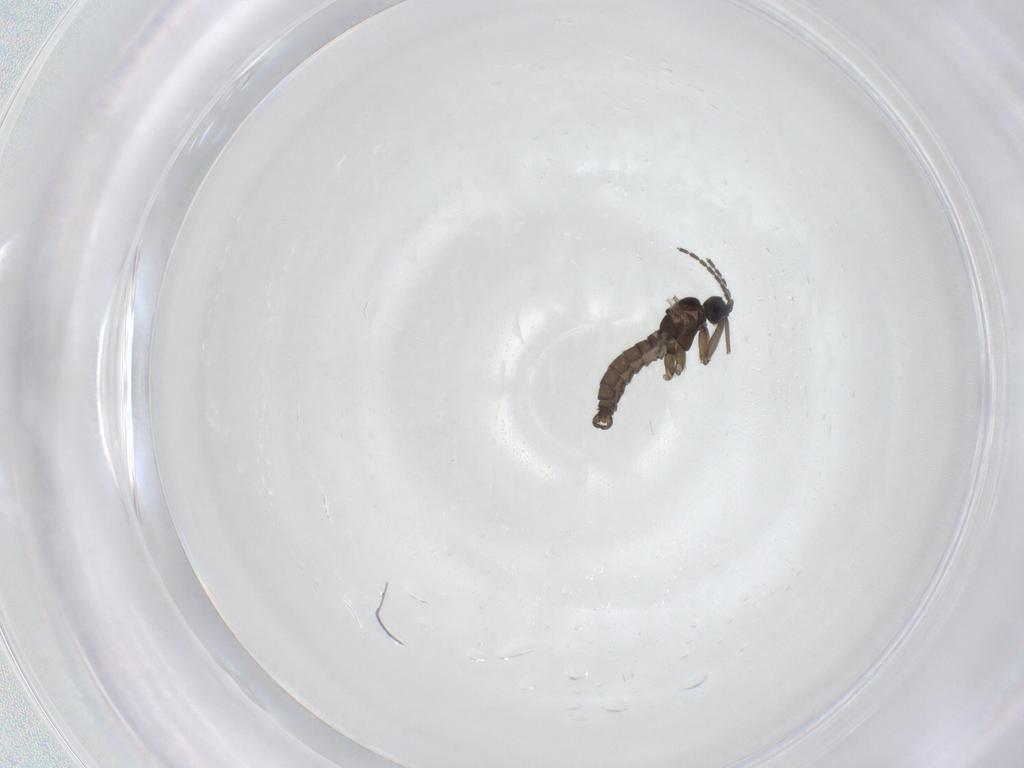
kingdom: Animalia
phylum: Arthropoda
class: Insecta
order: Diptera
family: Sciaridae
